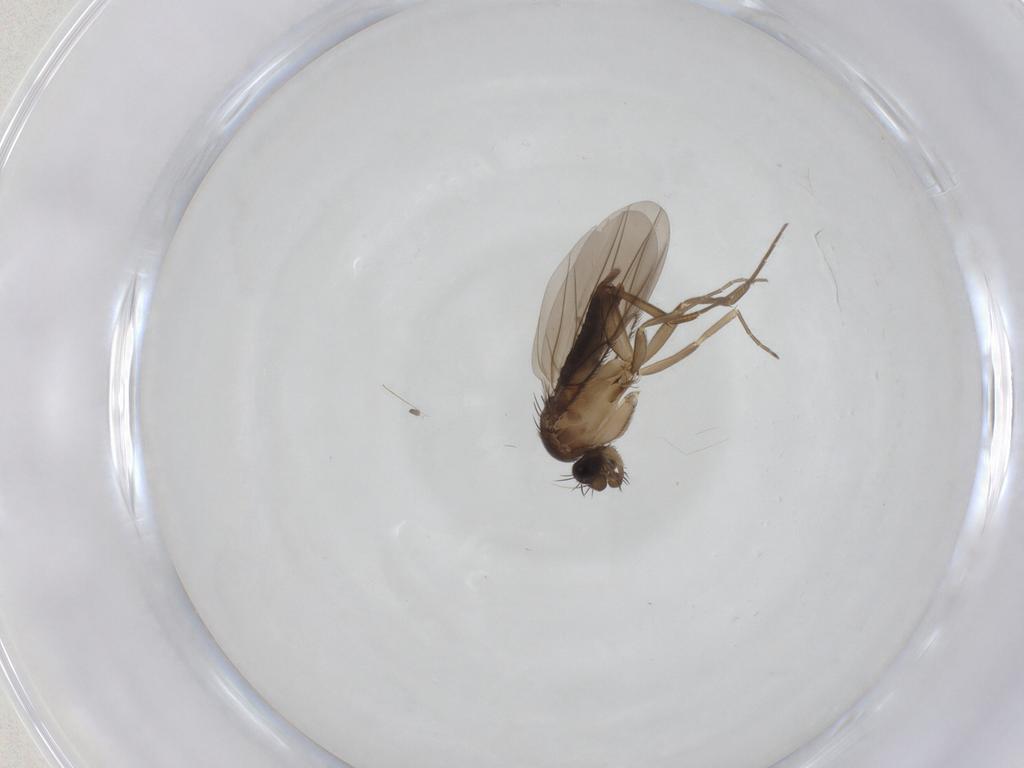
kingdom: Animalia
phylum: Arthropoda
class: Insecta
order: Diptera
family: Phoridae
